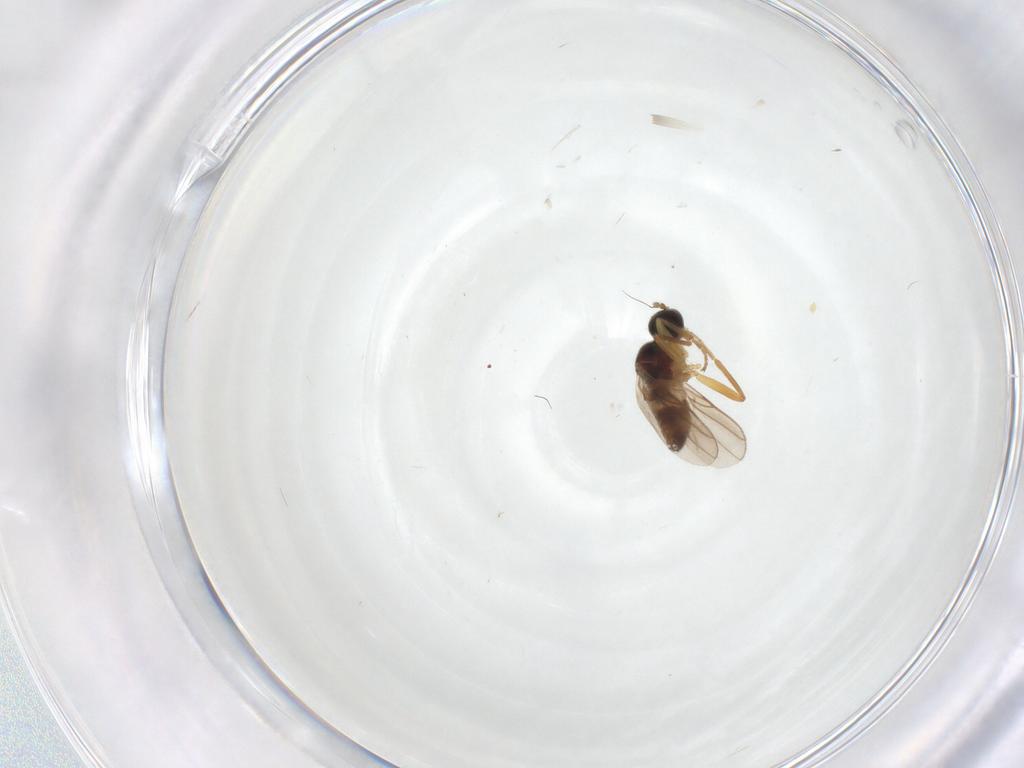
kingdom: Animalia
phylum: Arthropoda
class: Insecta
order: Diptera
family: Hybotidae
